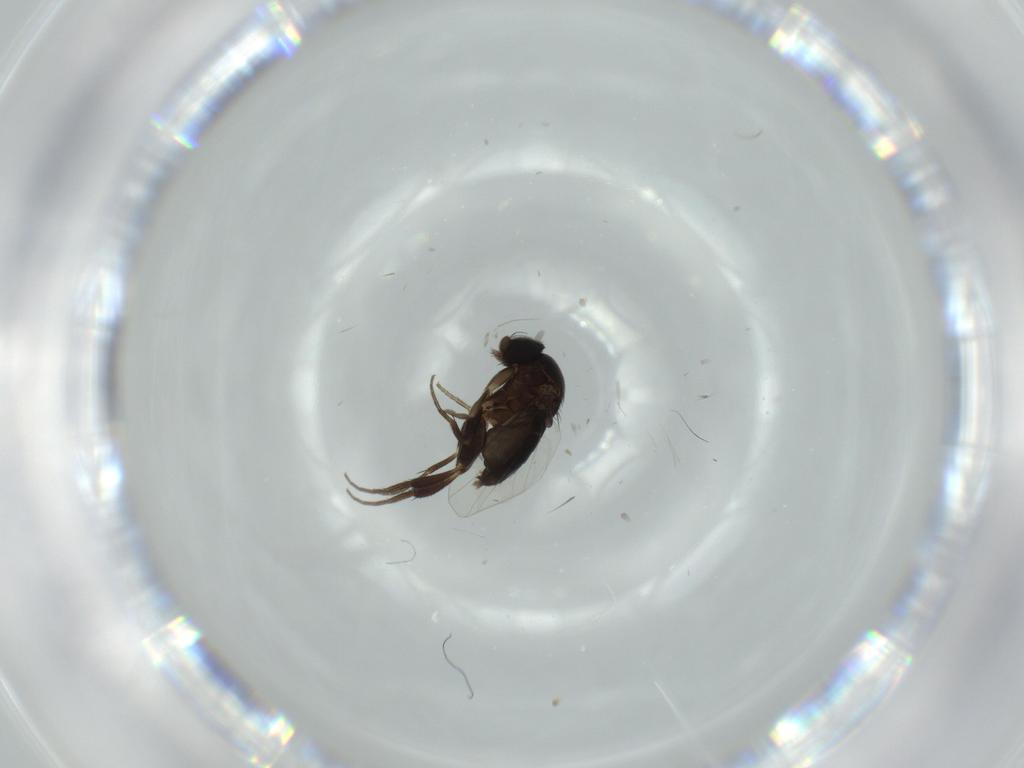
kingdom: Animalia
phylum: Arthropoda
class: Insecta
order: Diptera
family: Phoridae
